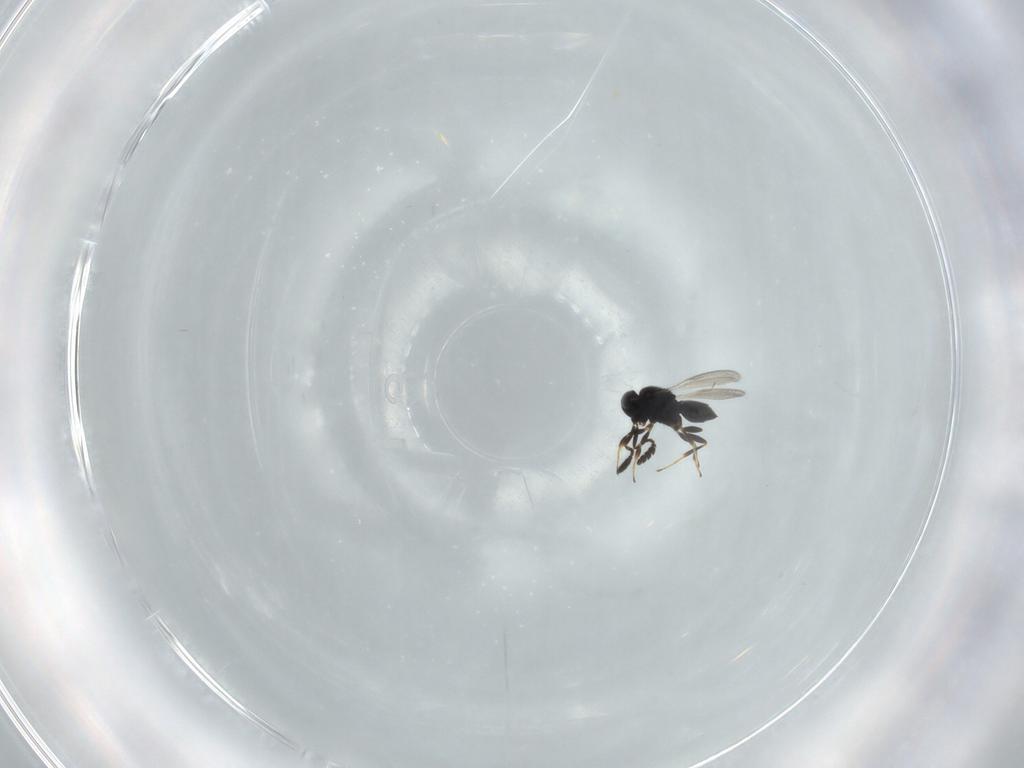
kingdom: Animalia
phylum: Arthropoda
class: Insecta
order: Hymenoptera
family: Scelionidae
